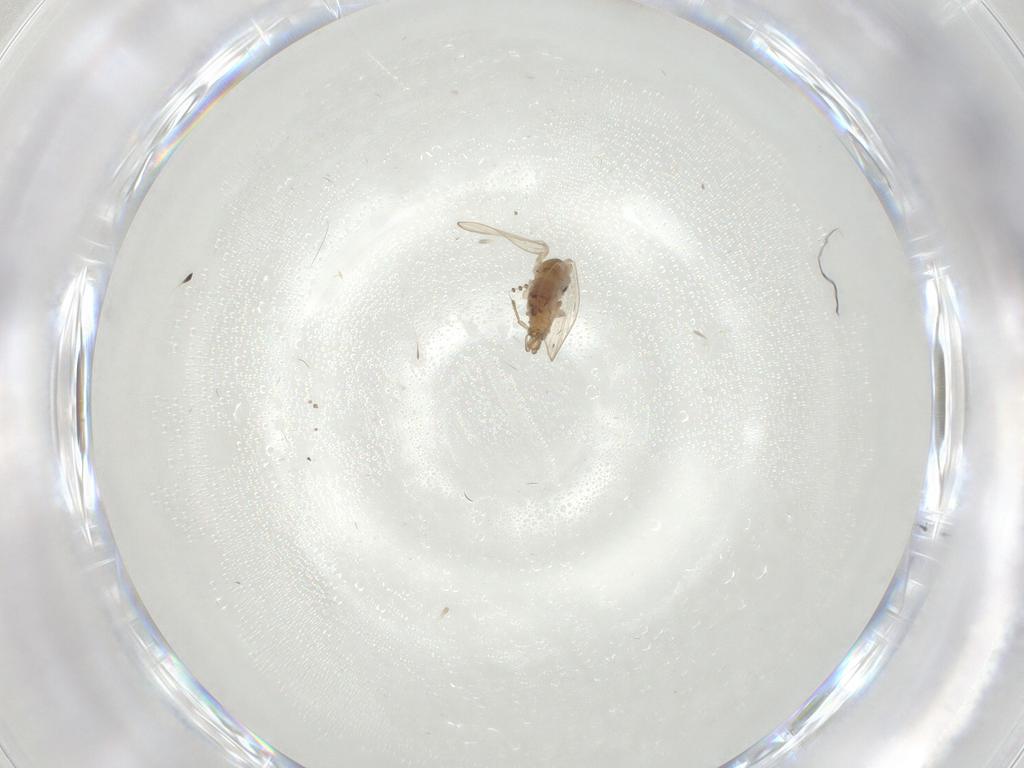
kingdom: Animalia
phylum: Arthropoda
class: Insecta
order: Diptera
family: Psychodidae
